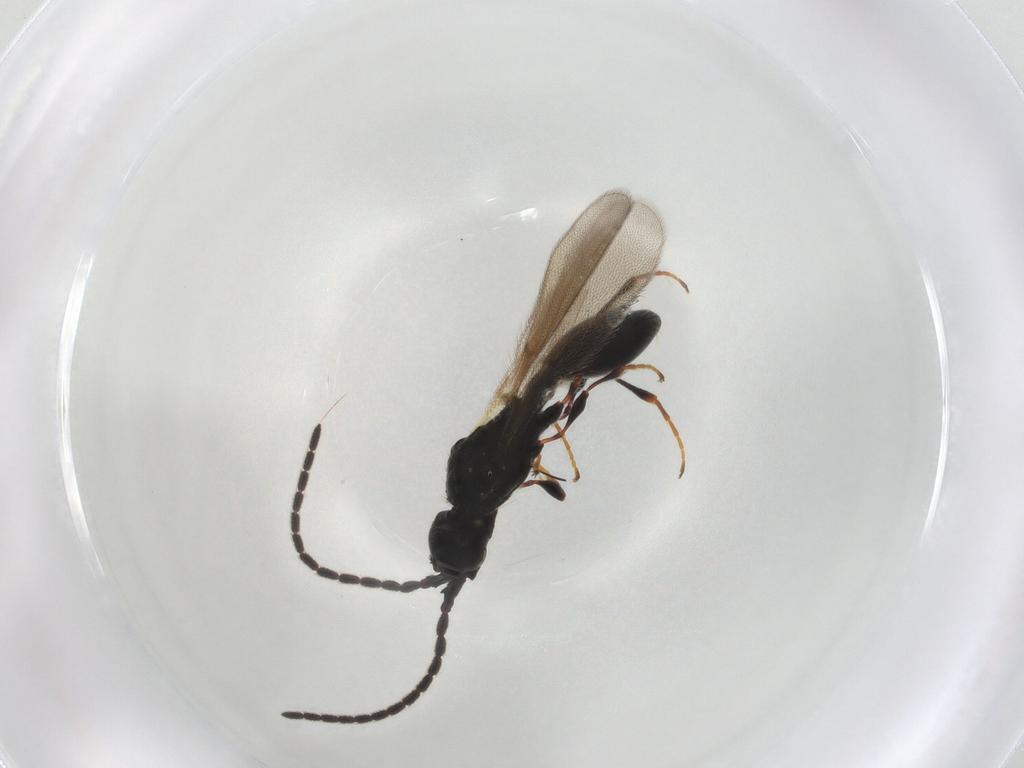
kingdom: Animalia
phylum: Arthropoda
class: Insecta
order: Hymenoptera
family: Diapriidae
